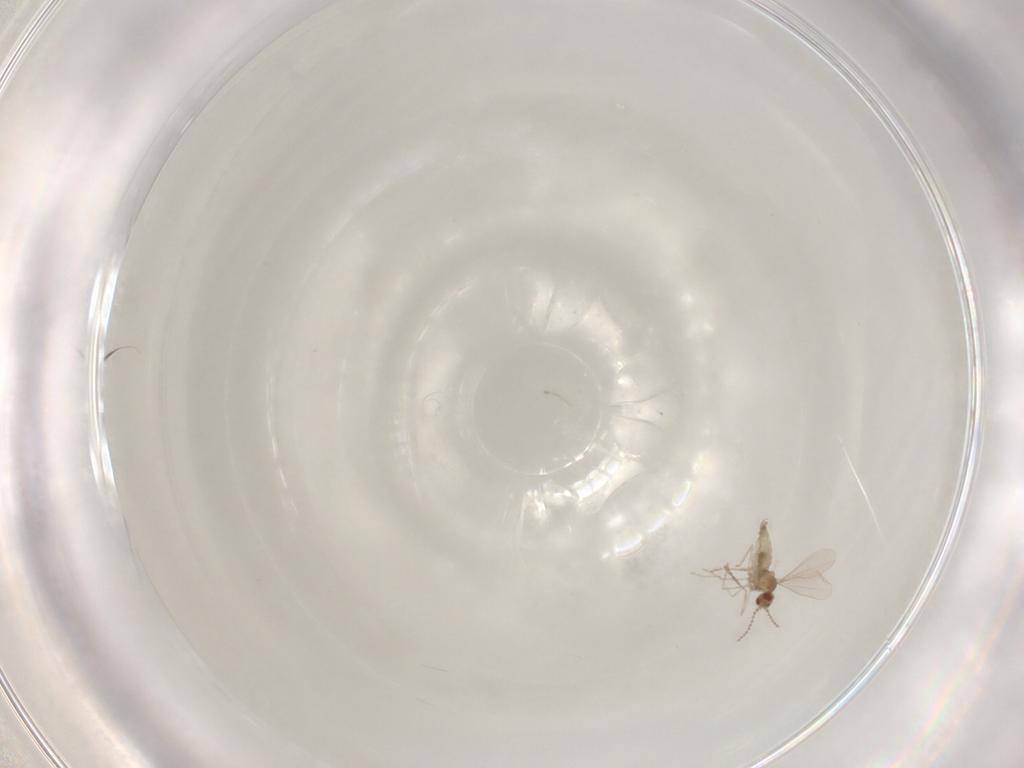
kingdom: Animalia
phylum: Arthropoda
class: Insecta
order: Diptera
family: Cecidomyiidae
